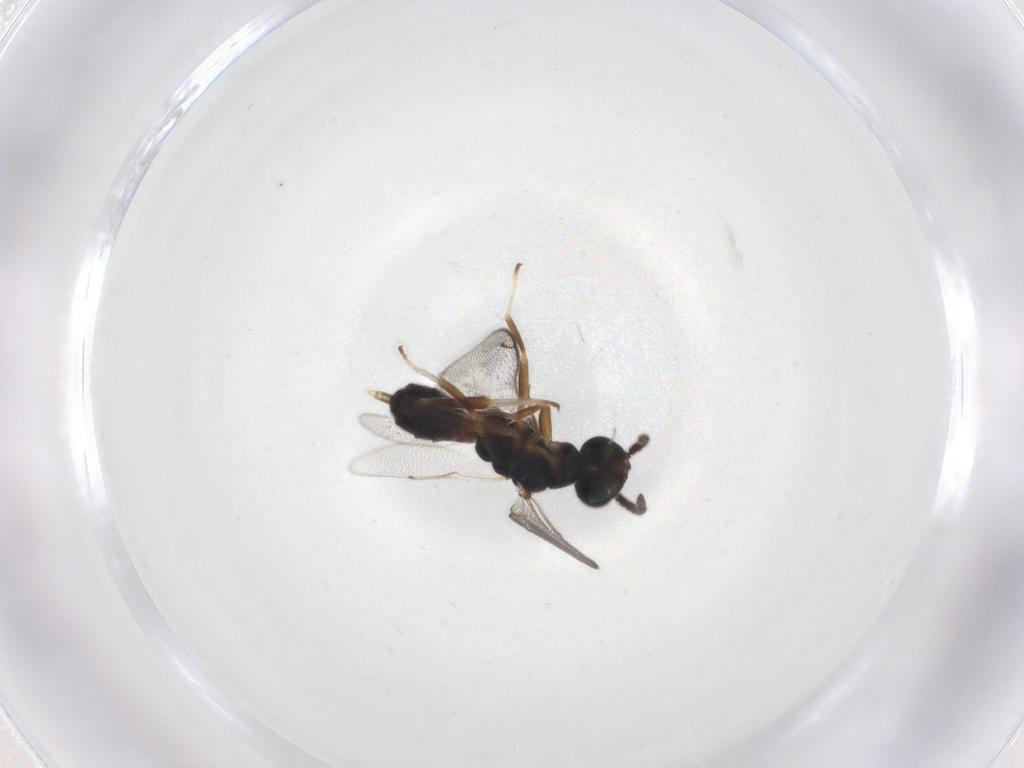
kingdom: Animalia
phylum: Arthropoda
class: Insecta
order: Hymenoptera
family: Cleonyminae
